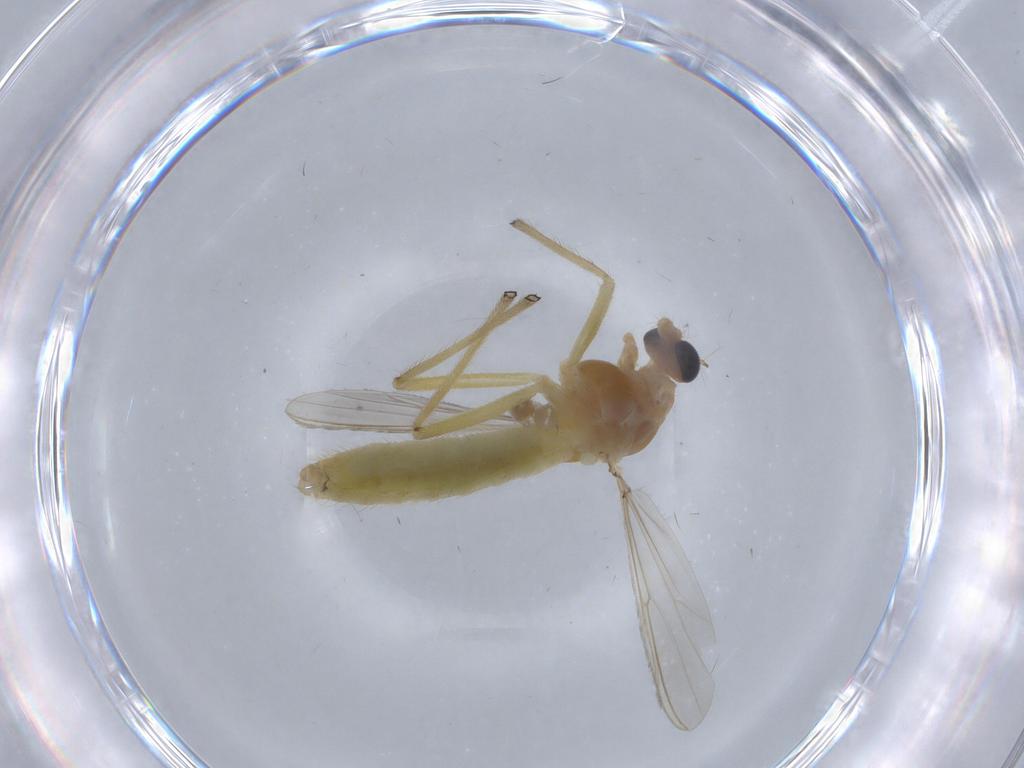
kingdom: Animalia
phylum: Arthropoda
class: Insecta
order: Diptera
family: Chironomidae
